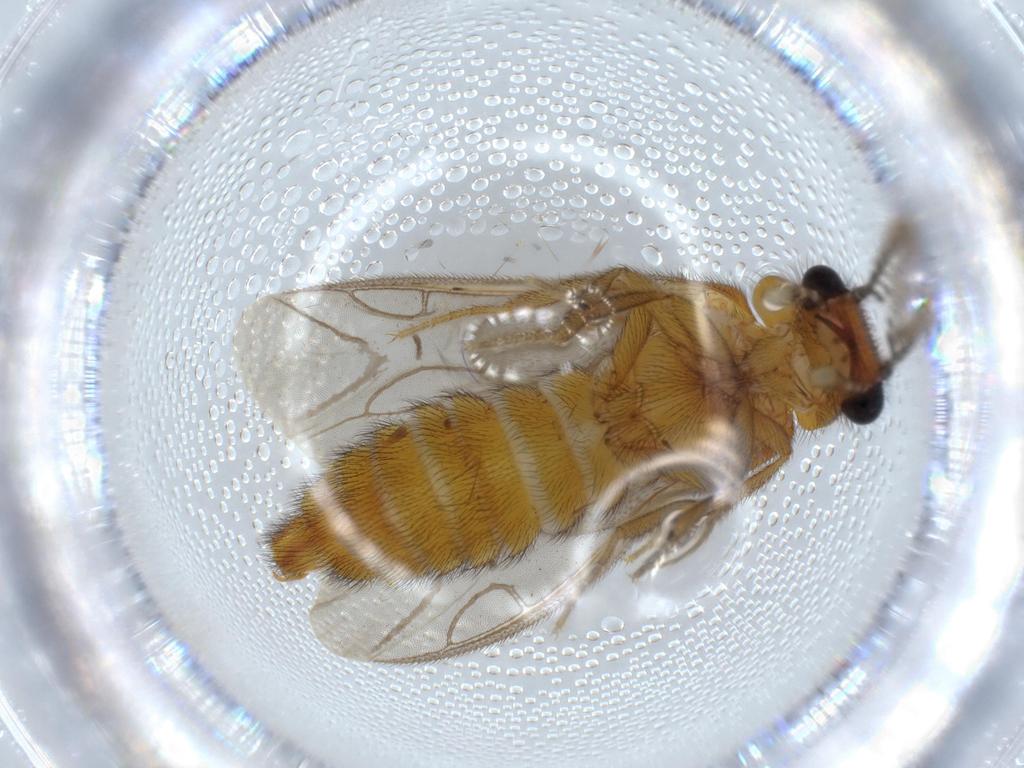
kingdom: Animalia
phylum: Arthropoda
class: Insecta
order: Coleoptera
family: Phengodidae
